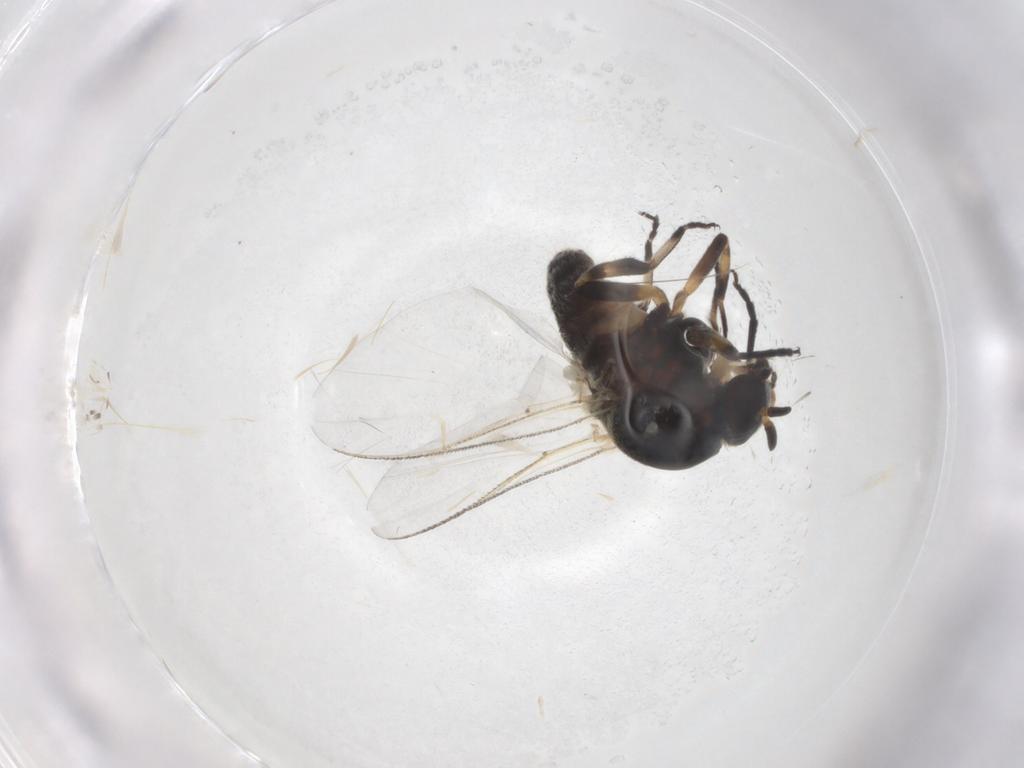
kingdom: Animalia
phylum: Arthropoda
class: Insecta
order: Diptera
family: Simuliidae
